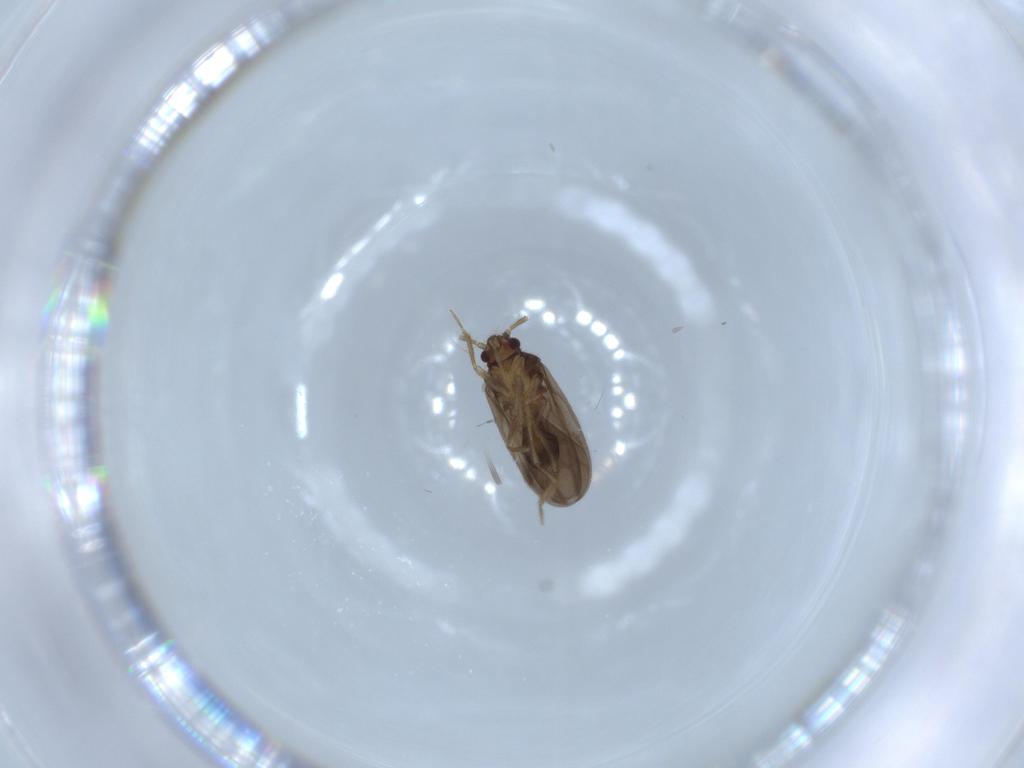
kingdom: Animalia
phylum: Arthropoda
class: Insecta
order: Hemiptera
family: Ceratocombidae
